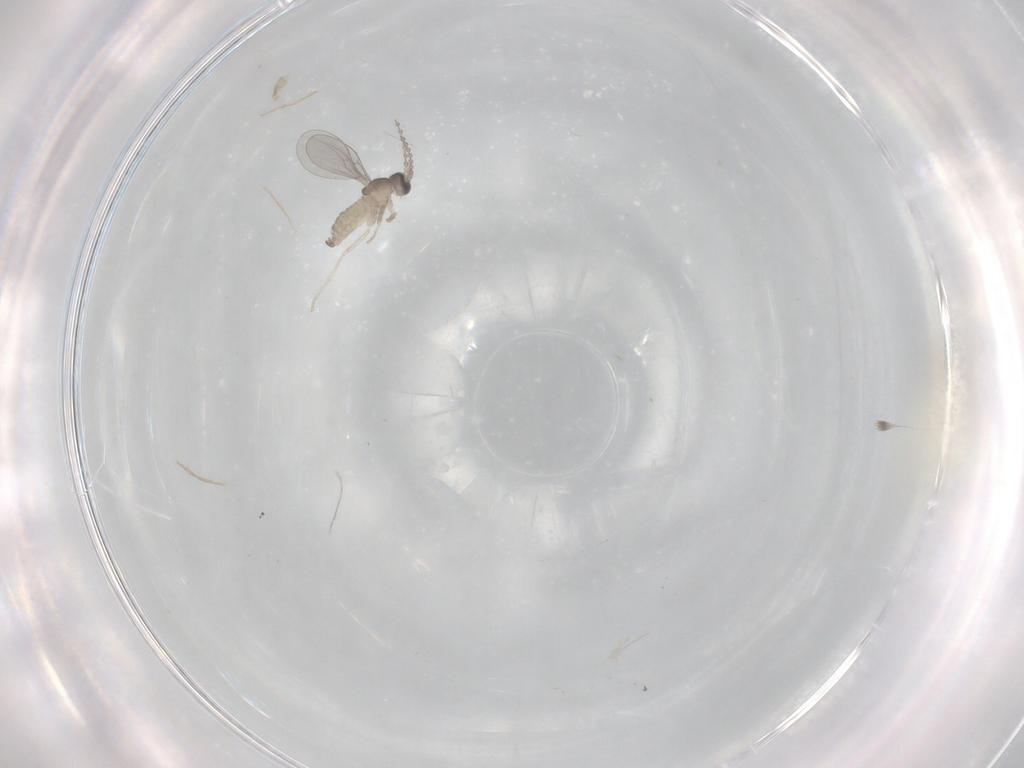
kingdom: Animalia
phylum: Arthropoda
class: Insecta
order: Diptera
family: Cecidomyiidae
